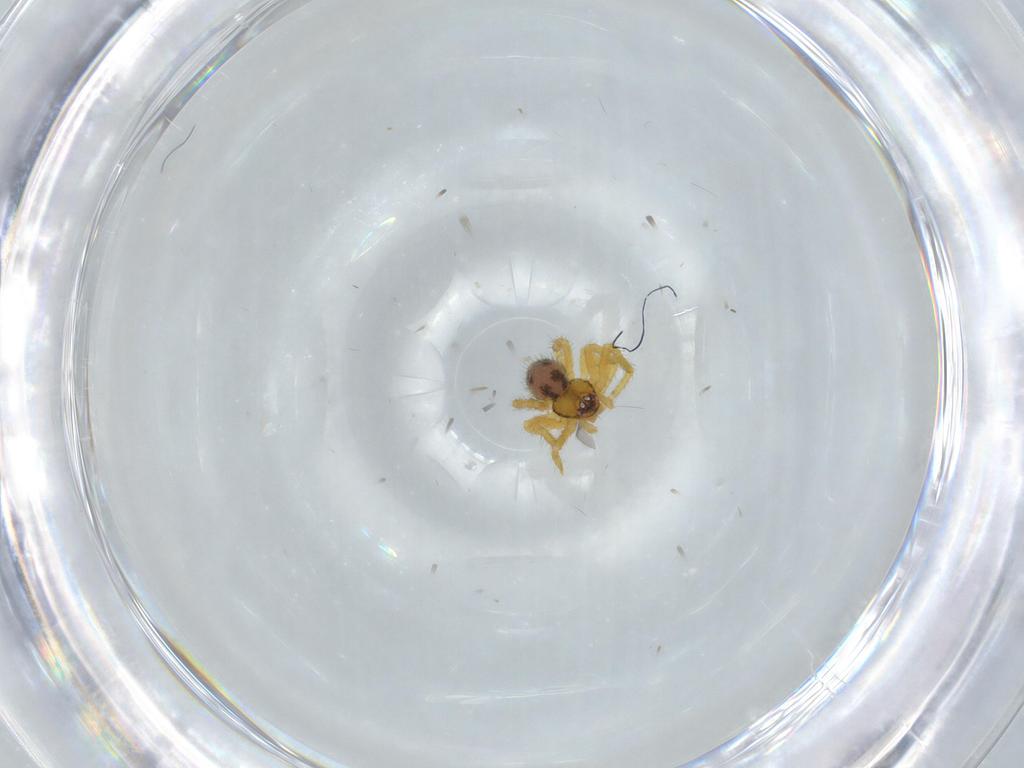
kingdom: Animalia
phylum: Arthropoda
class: Arachnida
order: Araneae
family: Theridiidae
